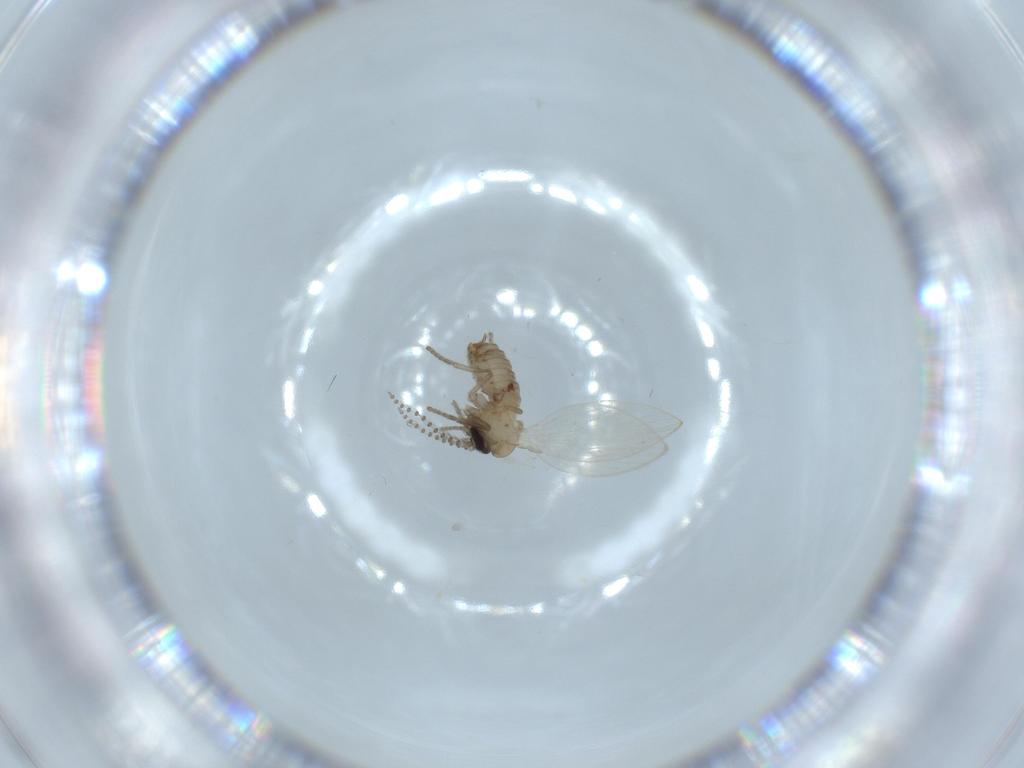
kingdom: Animalia
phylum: Arthropoda
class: Insecta
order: Diptera
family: Psychodidae
